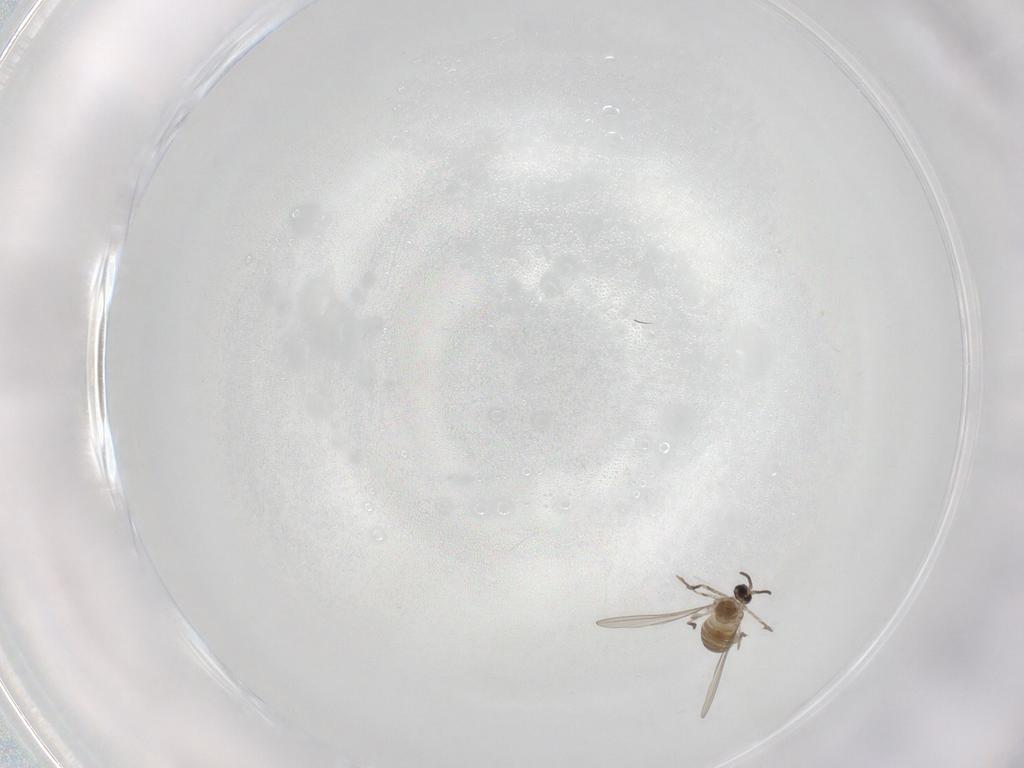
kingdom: Animalia
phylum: Arthropoda
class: Insecta
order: Diptera
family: Cecidomyiidae
